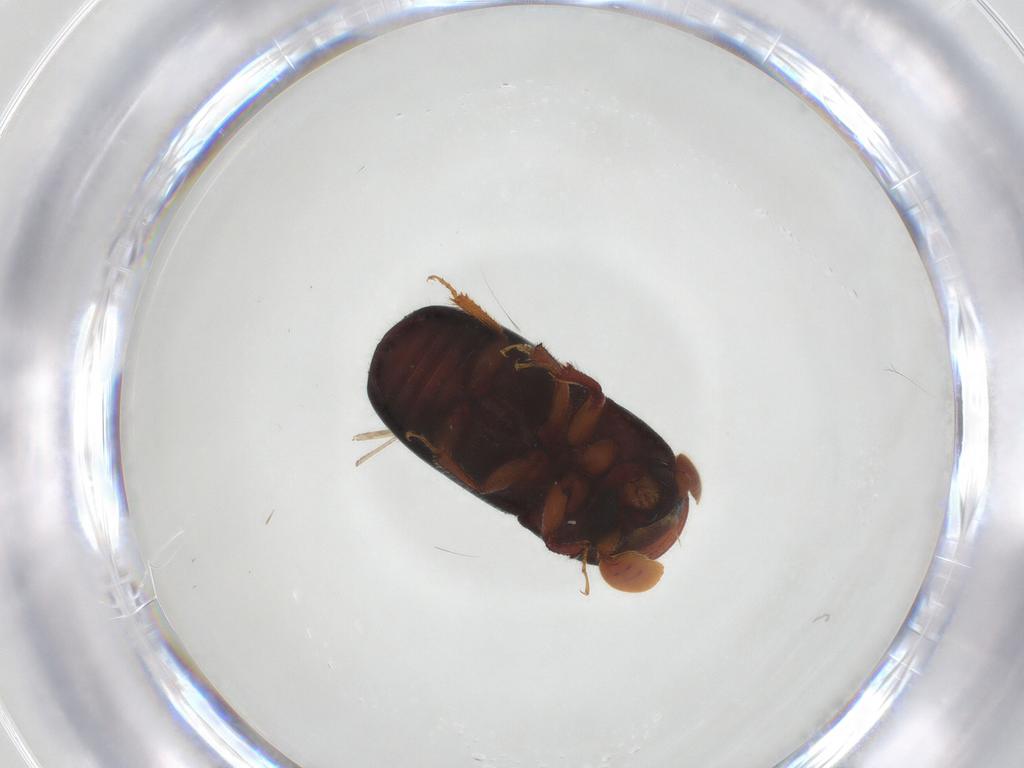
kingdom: Animalia
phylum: Arthropoda
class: Insecta
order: Coleoptera
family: Curculionidae
